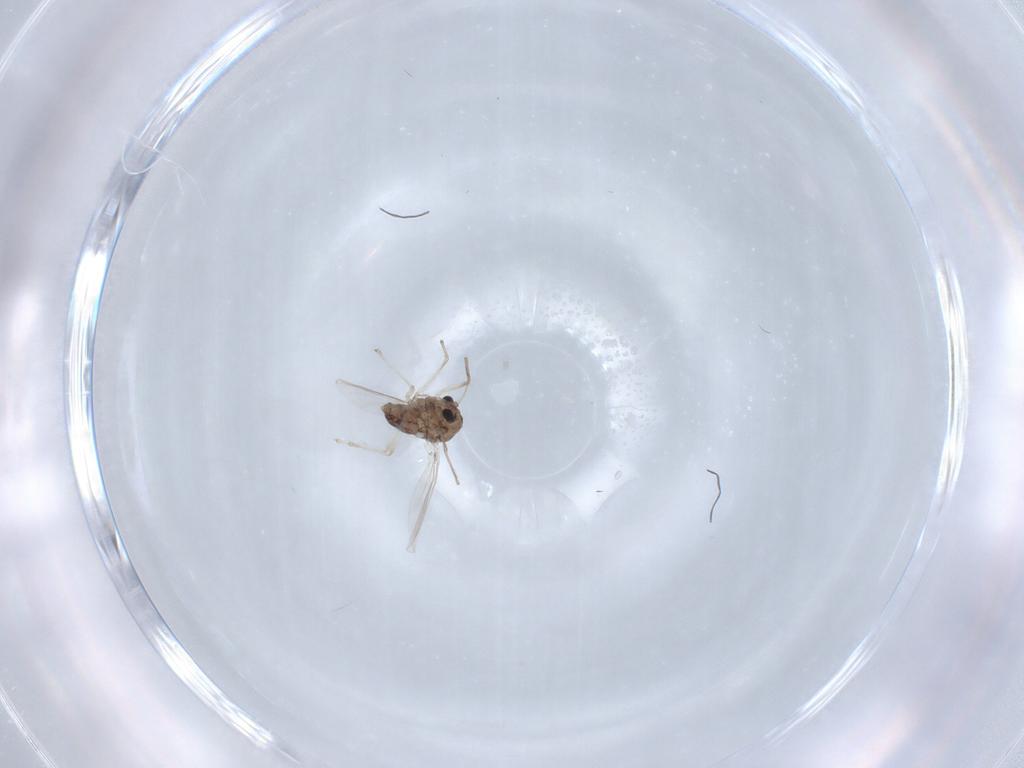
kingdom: Animalia
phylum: Arthropoda
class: Insecta
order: Diptera
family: Chironomidae
